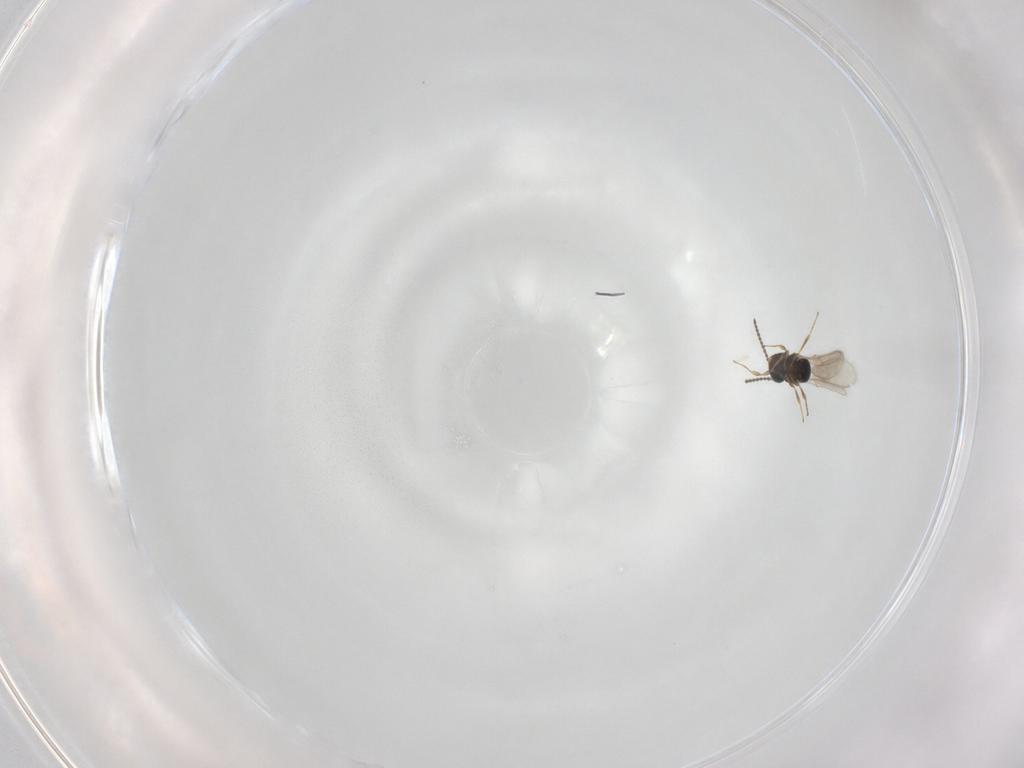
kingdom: Animalia
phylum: Arthropoda
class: Insecta
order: Hymenoptera
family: Scelionidae
